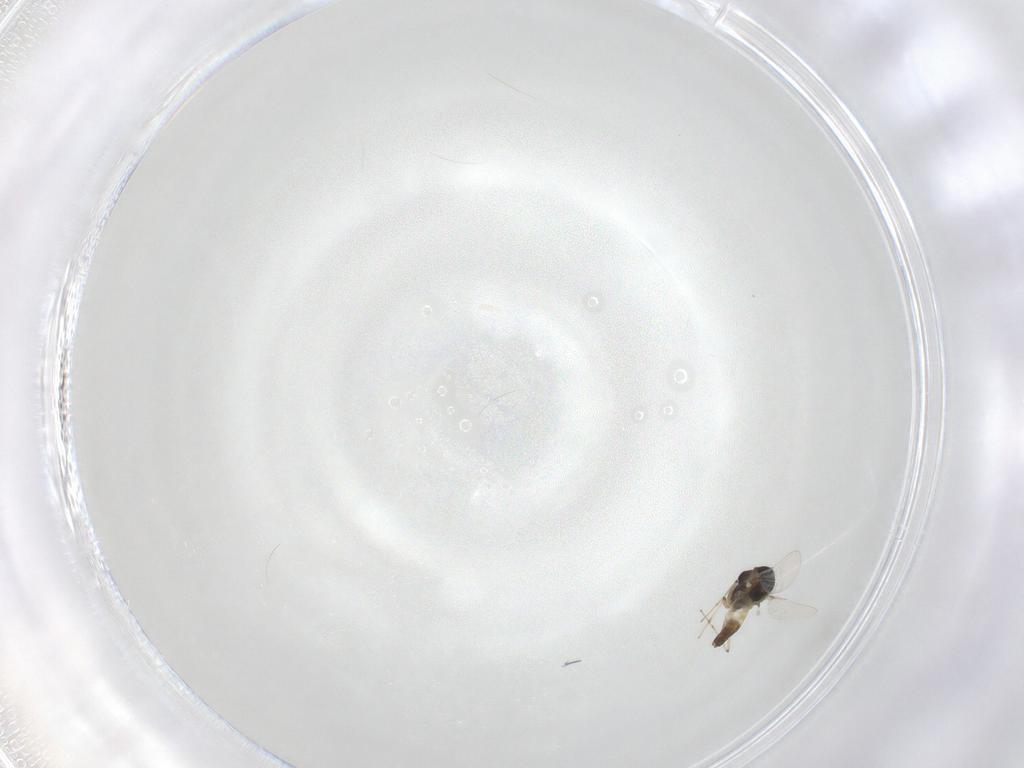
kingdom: Animalia
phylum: Arthropoda
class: Insecta
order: Diptera
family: Chironomidae
